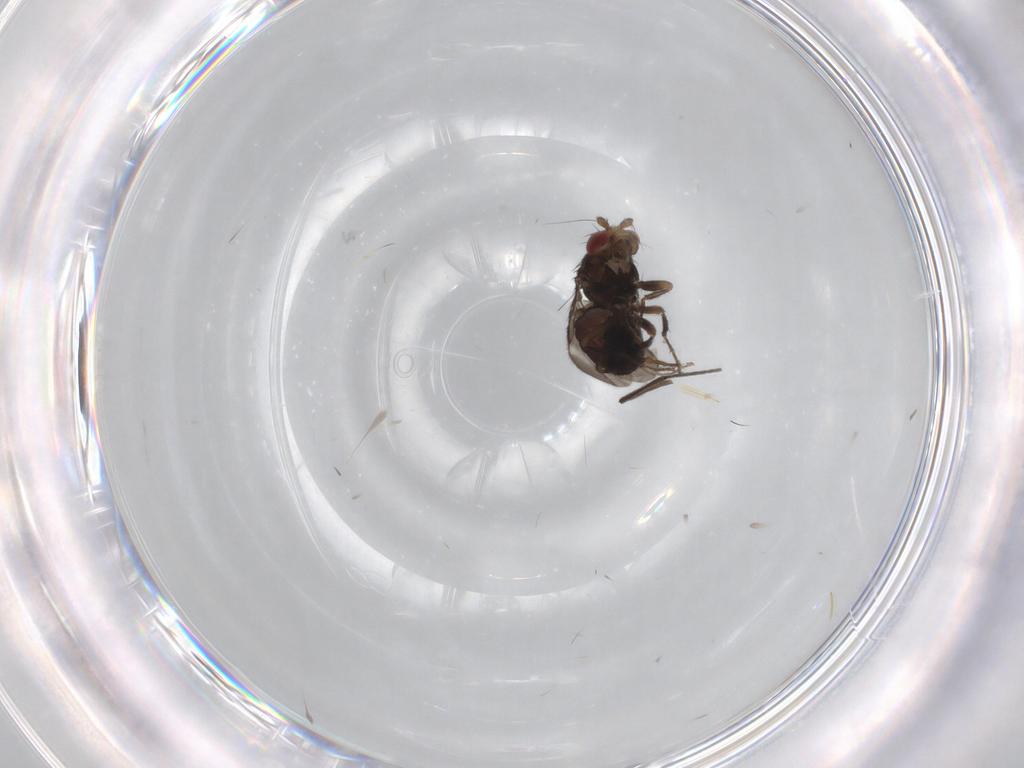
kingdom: Animalia
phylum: Arthropoda
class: Insecta
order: Diptera
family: Chironomidae
